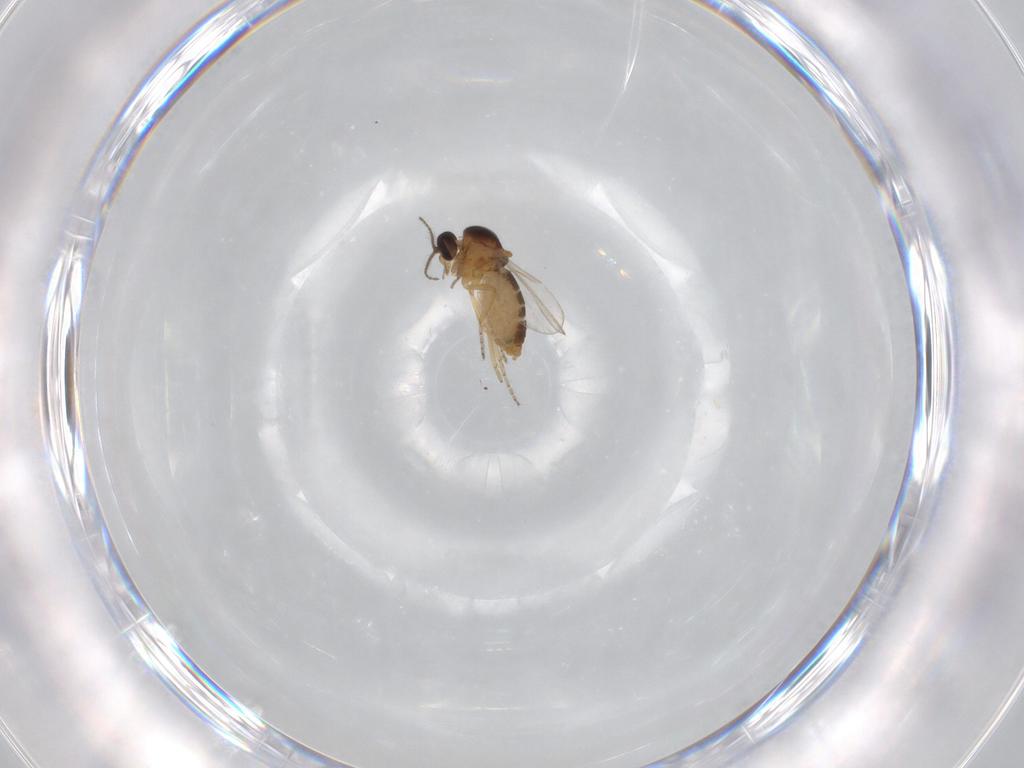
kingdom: Animalia
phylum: Arthropoda
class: Insecta
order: Diptera
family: Ceratopogonidae
